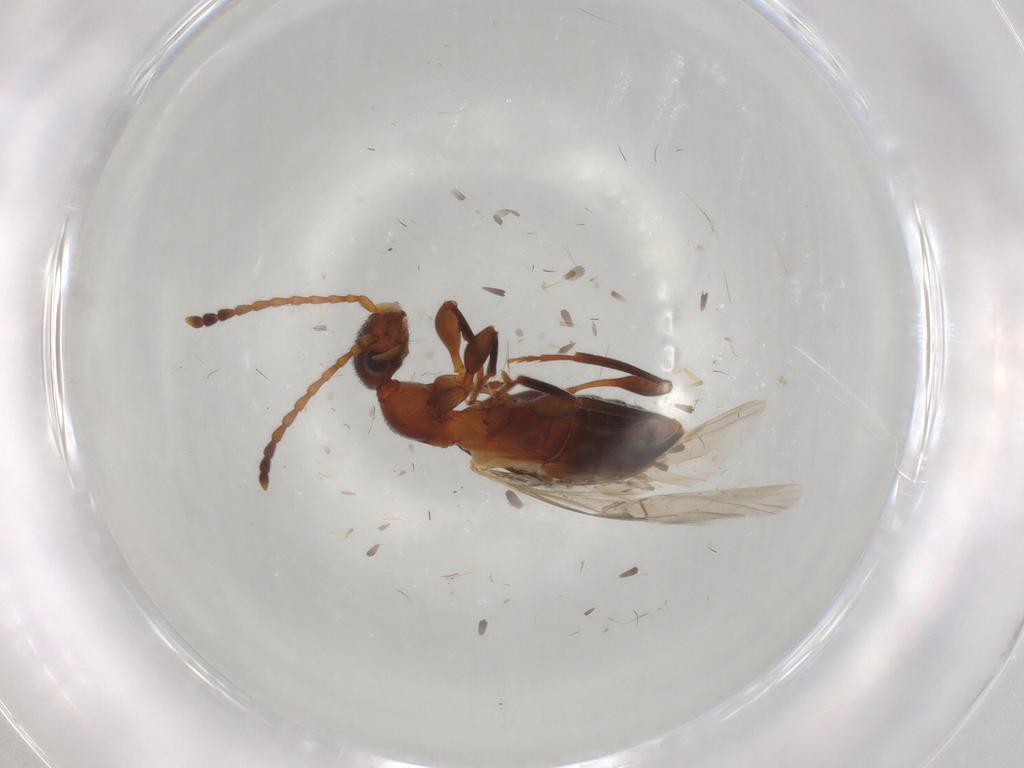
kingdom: Animalia
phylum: Arthropoda
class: Insecta
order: Coleoptera
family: Anthicidae
